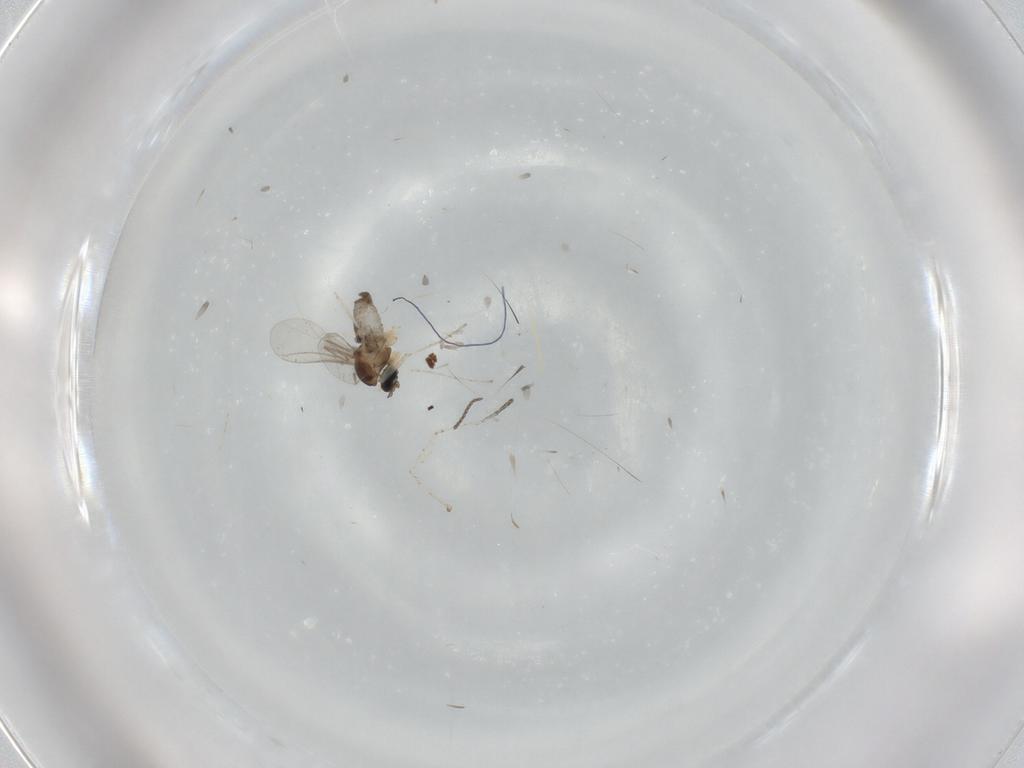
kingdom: Animalia
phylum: Arthropoda
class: Insecta
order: Diptera
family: Cecidomyiidae
